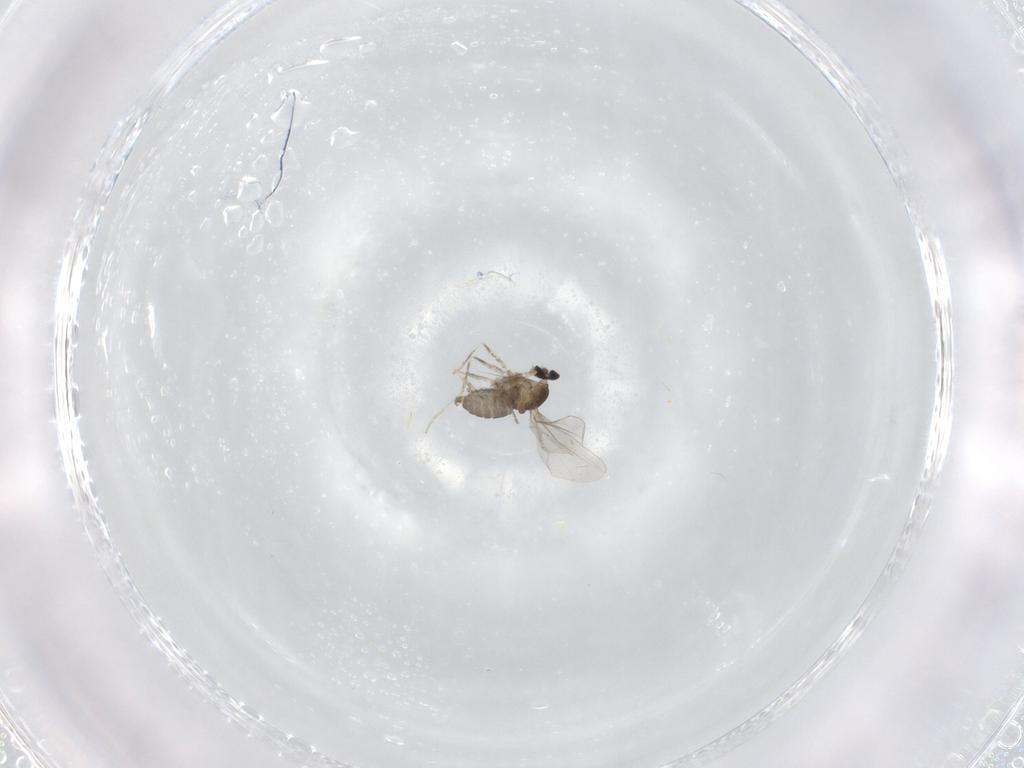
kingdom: Animalia
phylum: Arthropoda
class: Insecta
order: Diptera
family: Cecidomyiidae
